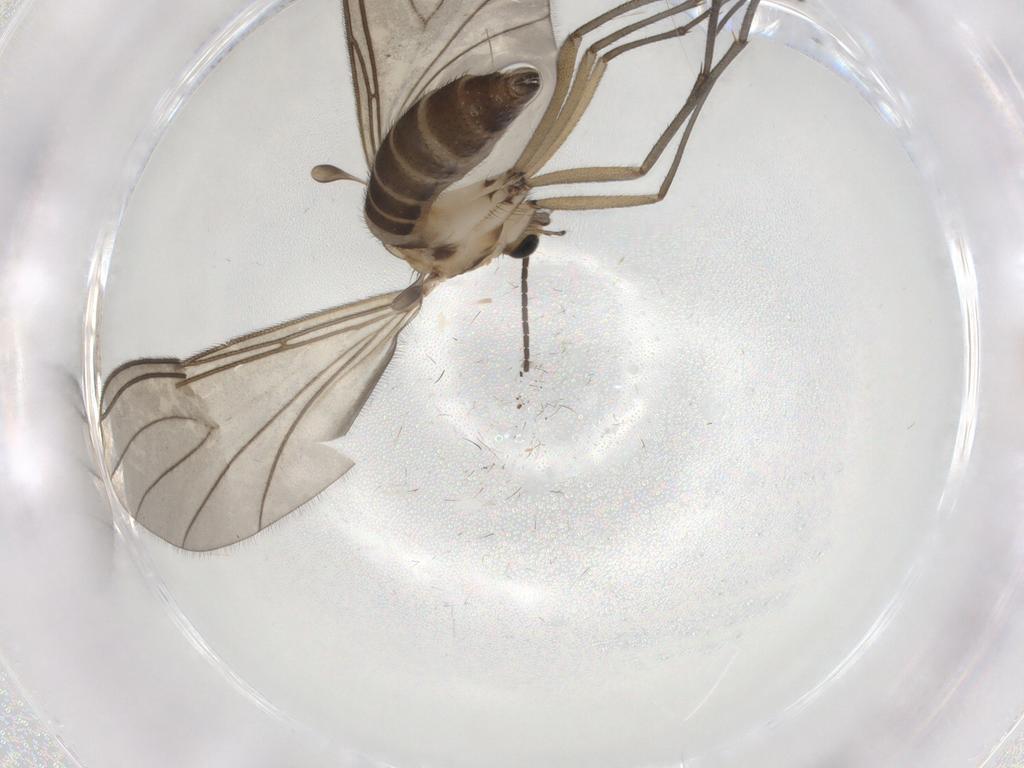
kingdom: Animalia
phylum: Arthropoda
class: Insecta
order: Diptera
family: Sciaridae
